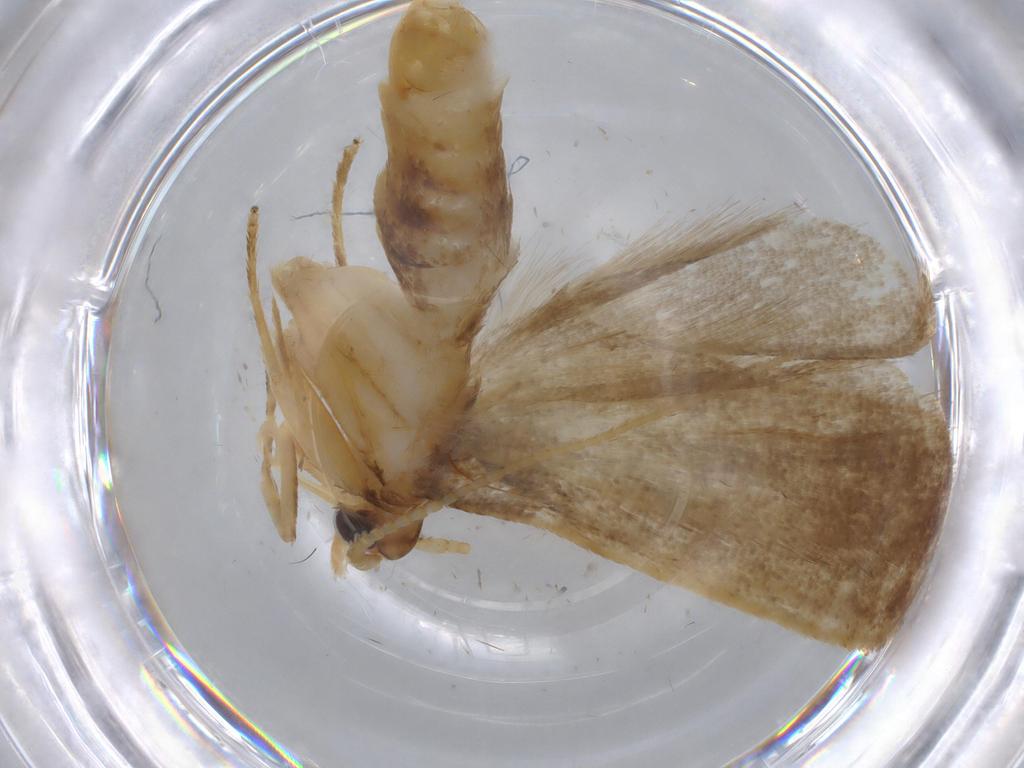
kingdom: Animalia
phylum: Arthropoda
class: Insecta
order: Lepidoptera
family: Lecithoceridae
